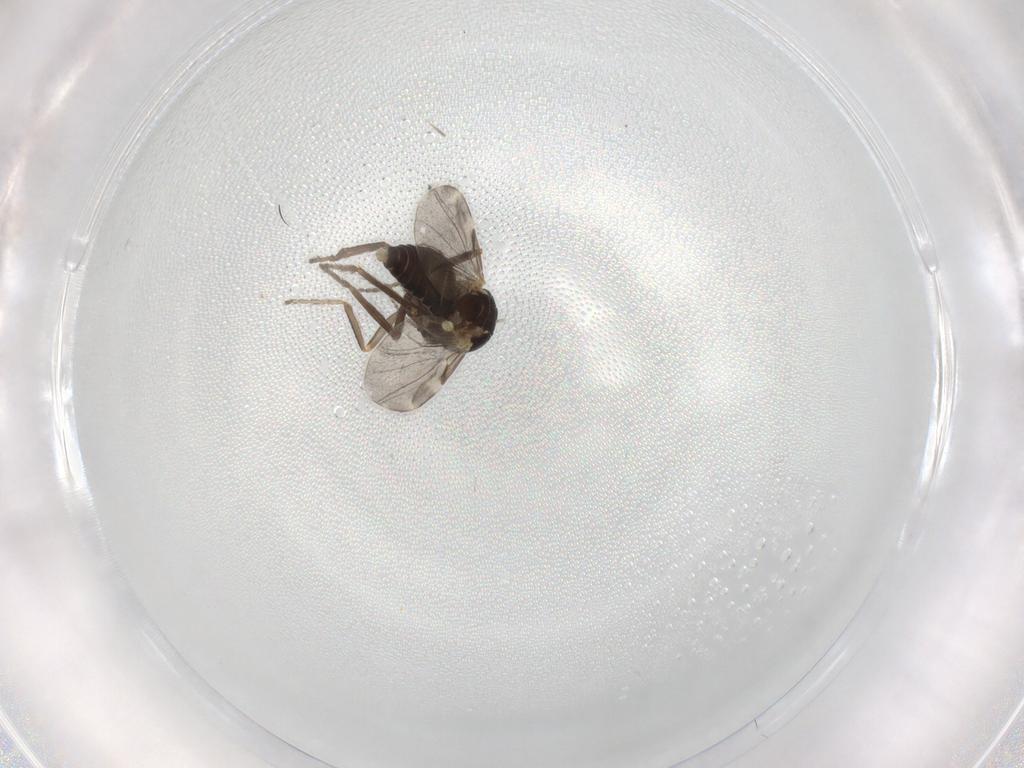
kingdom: Animalia
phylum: Arthropoda
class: Insecta
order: Diptera
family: Ceratopogonidae
